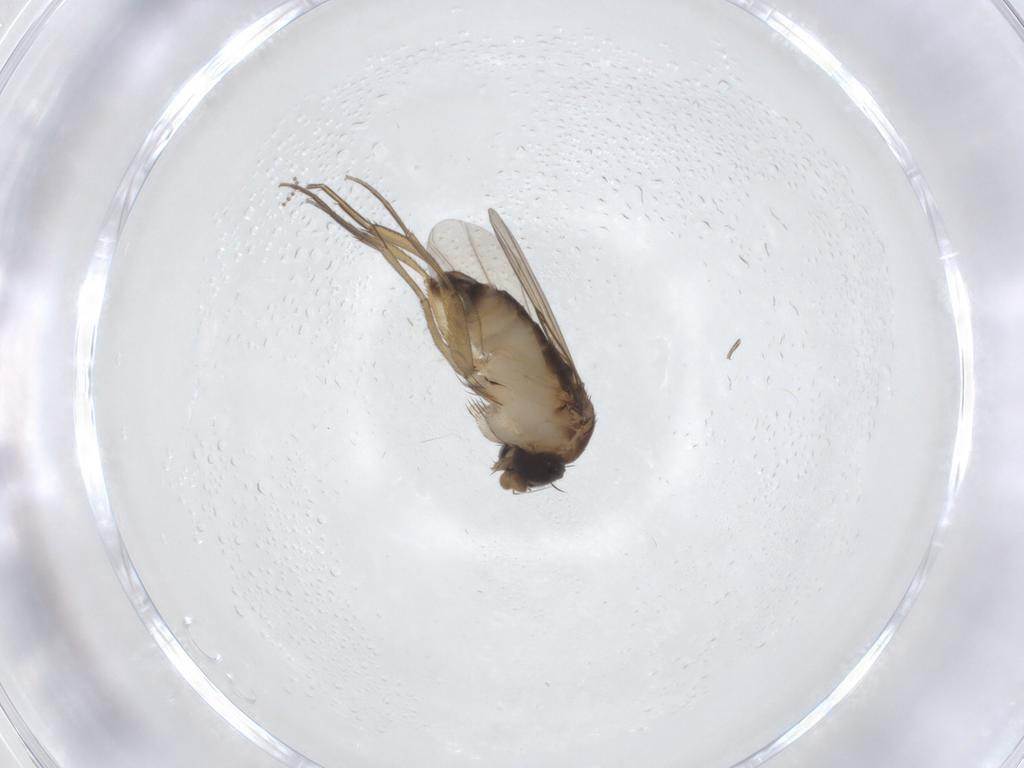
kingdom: Animalia
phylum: Arthropoda
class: Insecta
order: Diptera
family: Phoridae
